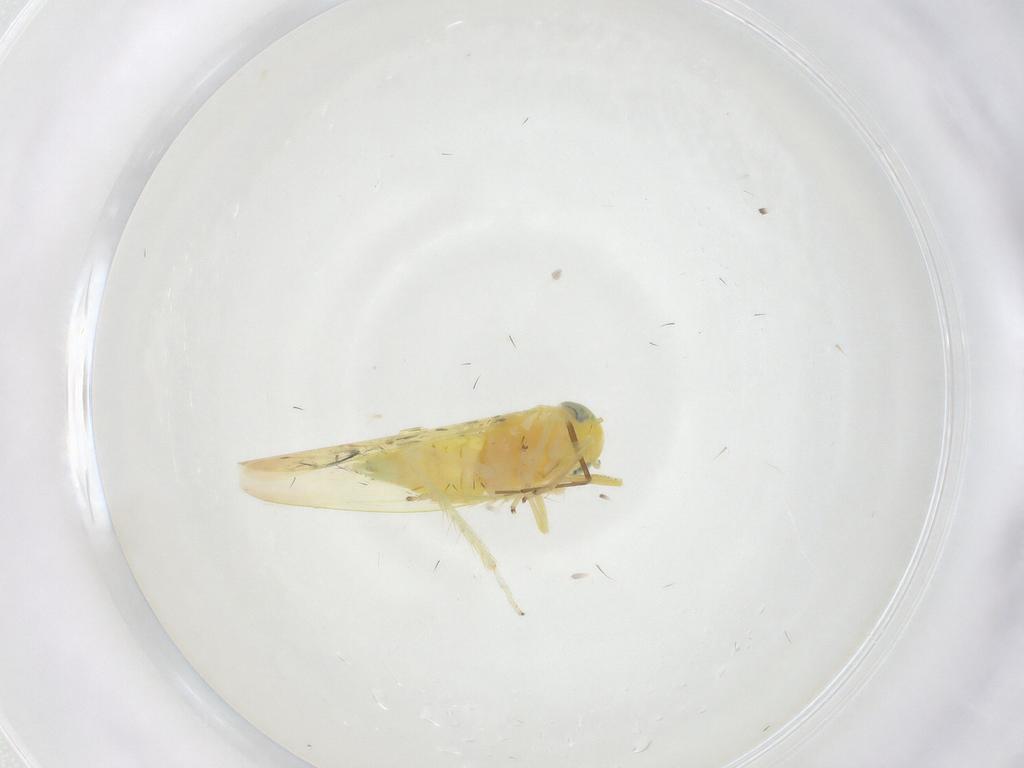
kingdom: Animalia
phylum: Arthropoda
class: Insecta
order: Hemiptera
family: Cicadellidae
